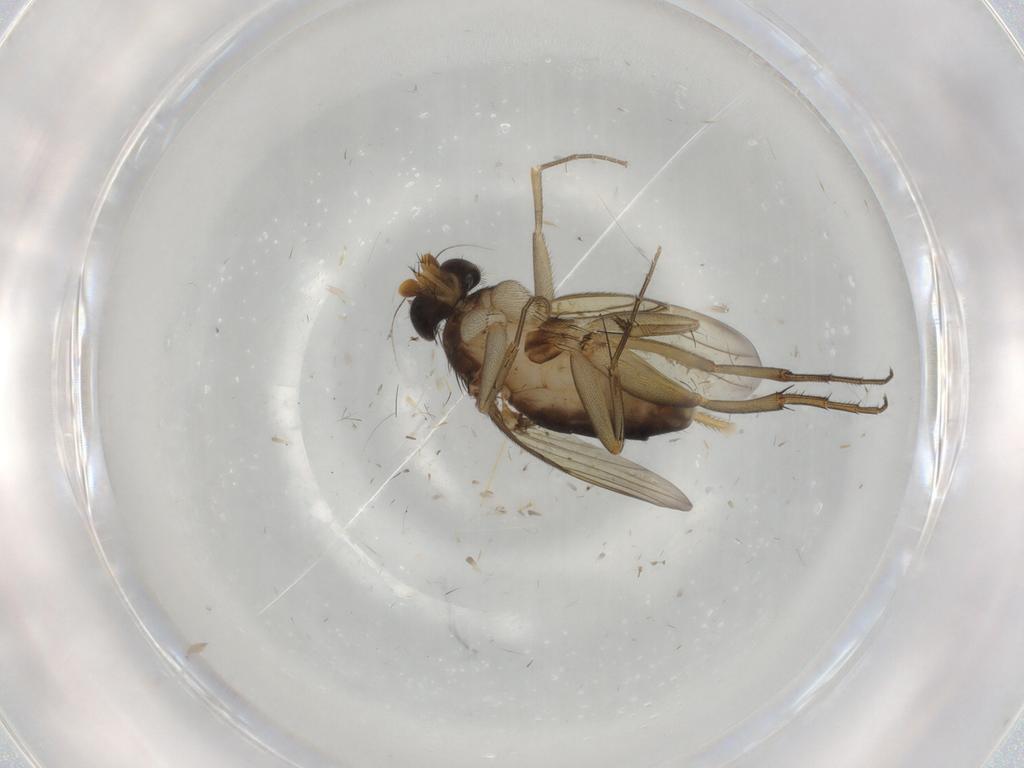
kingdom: Animalia
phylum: Arthropoda
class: Insecta
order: Diptera
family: Phoridae
